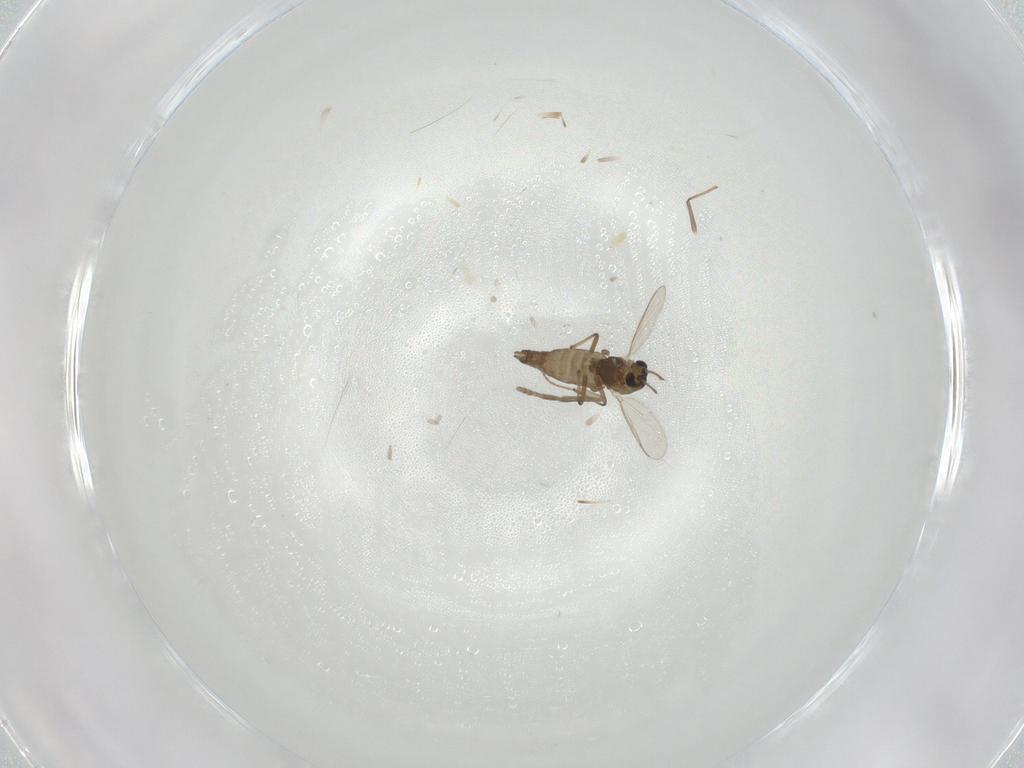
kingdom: Animalia
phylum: Arthropoda
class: Insecta
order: Diptera
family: Chironomidae
